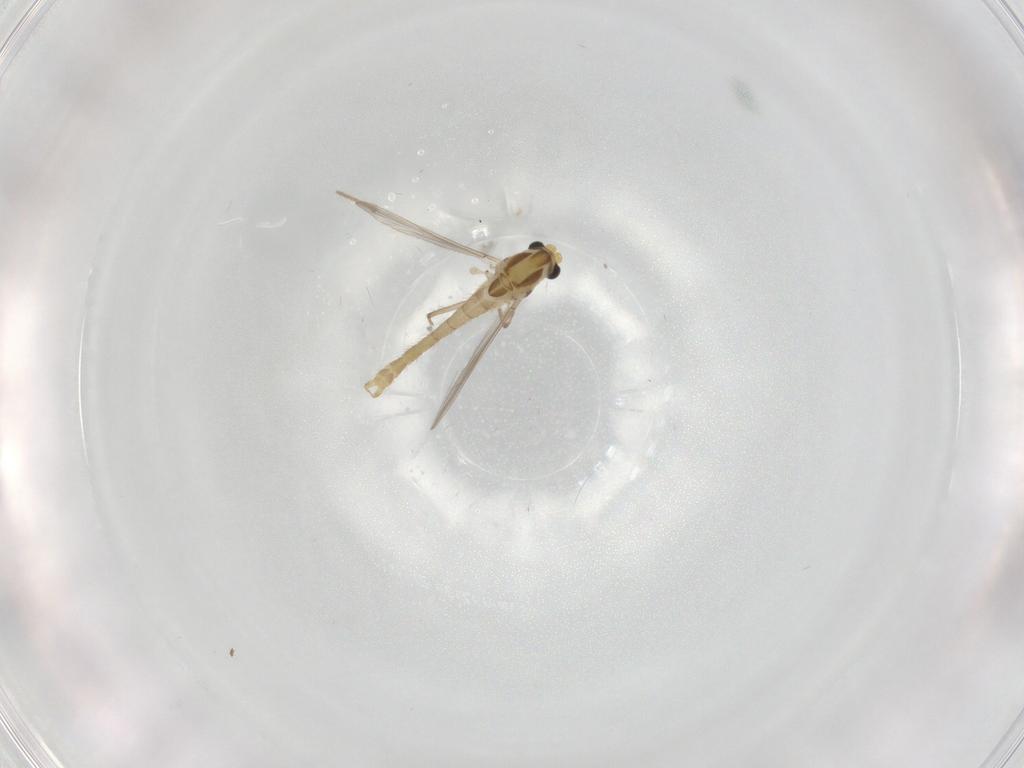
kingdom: Animalia
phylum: Arthropoda
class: Insecta
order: Diptera
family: Cecidomyiidae
